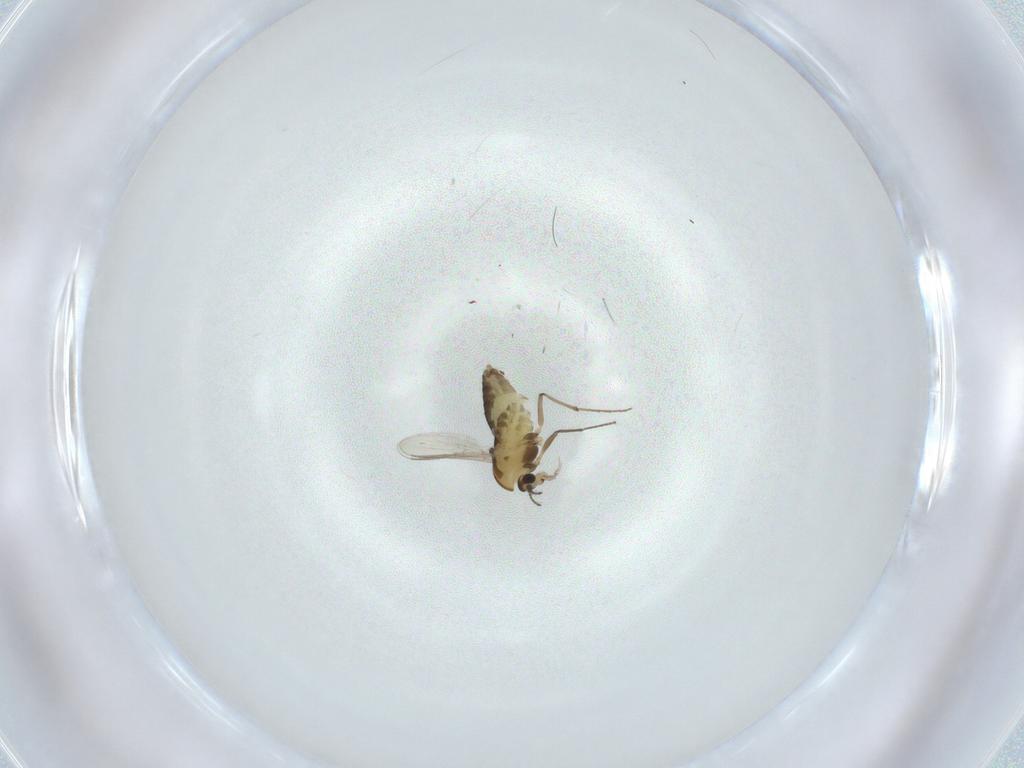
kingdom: Animalia
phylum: Arthropoda
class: Insecta
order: Diptera
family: Chironomidae
